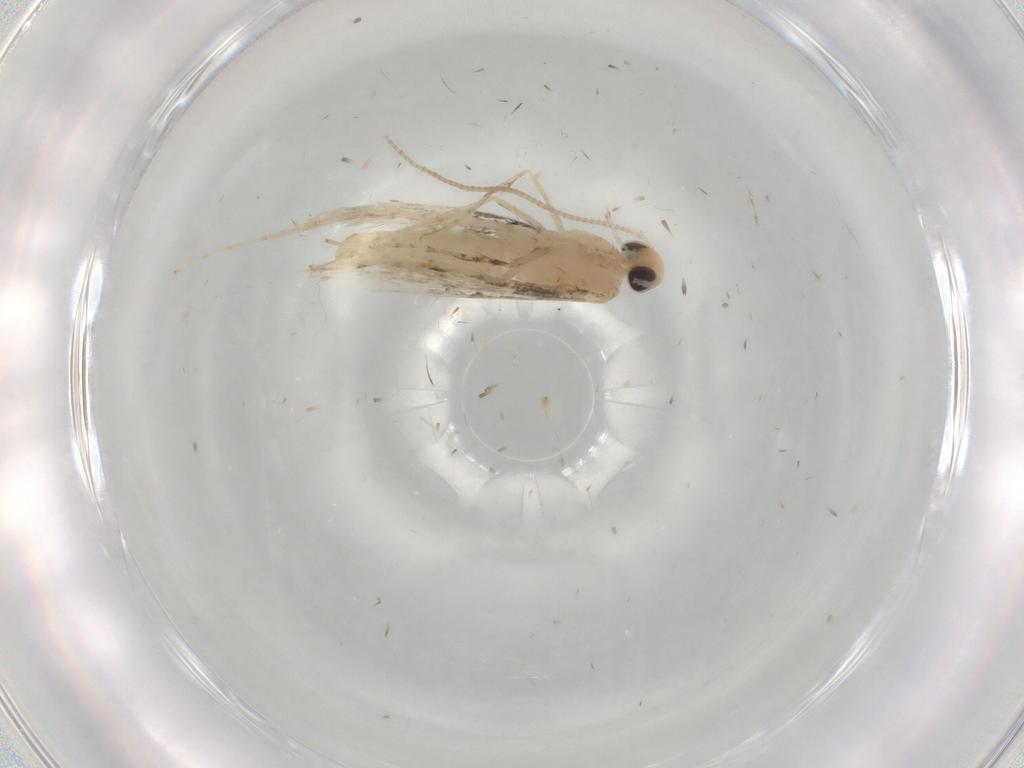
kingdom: Animalia
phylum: Arthropoda
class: Insecta
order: Lepidoptera
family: Gracillariidae
